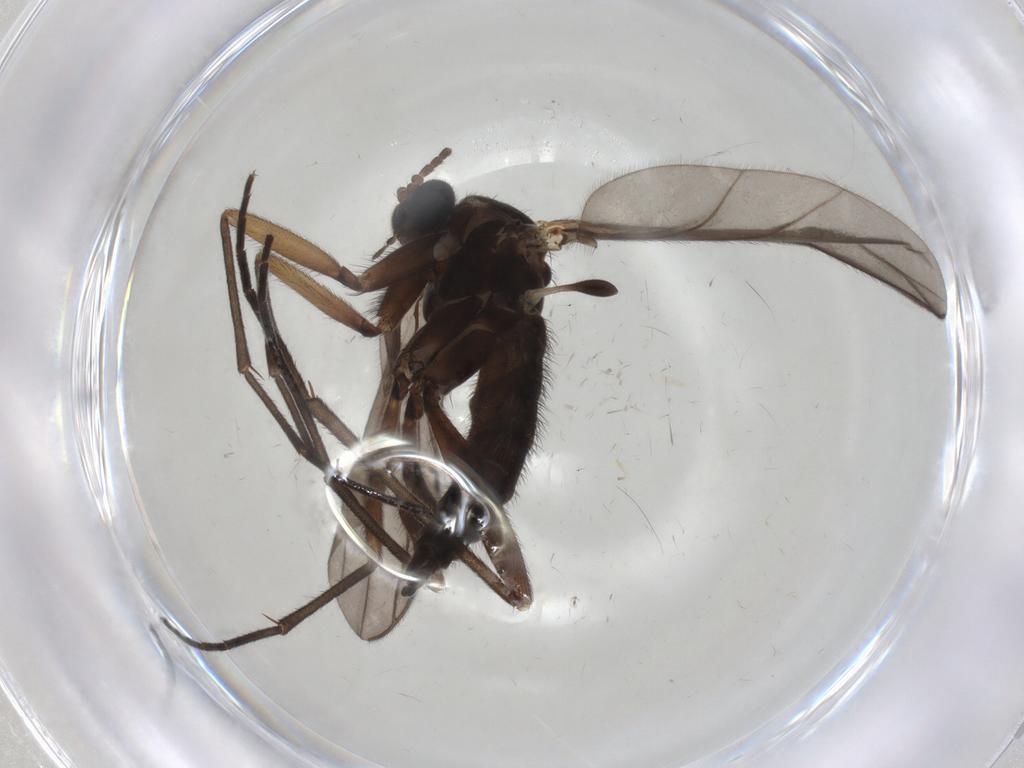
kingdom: Animalia
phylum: Arthropoda
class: Insecta
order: Diptera
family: Sciaridae
